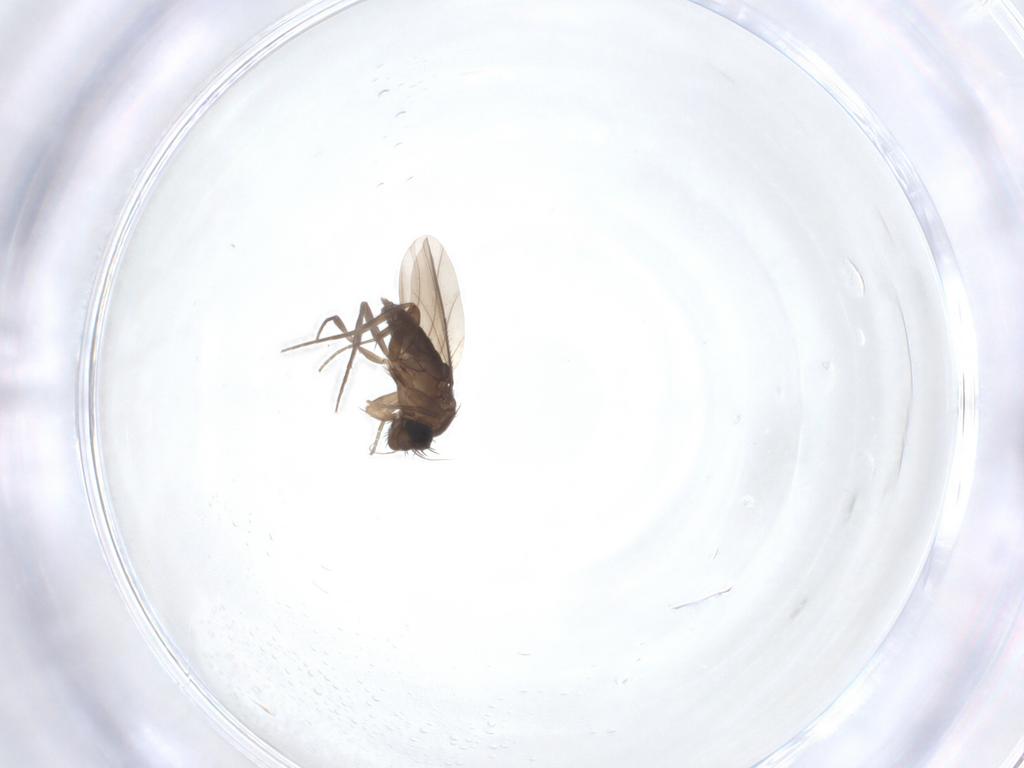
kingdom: Animalia
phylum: Arthropoda
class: Insecta
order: Diptera
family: Phoridae
